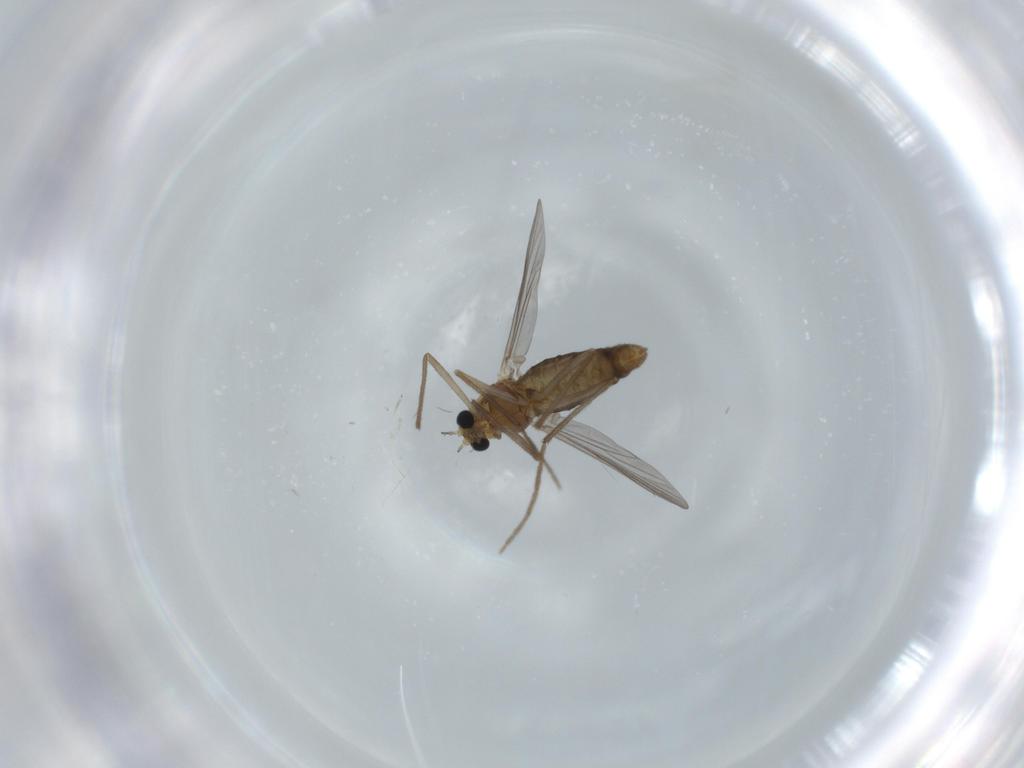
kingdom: Animalia
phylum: Arthropoda
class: Insecta
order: Diptera
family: Chironomidae
